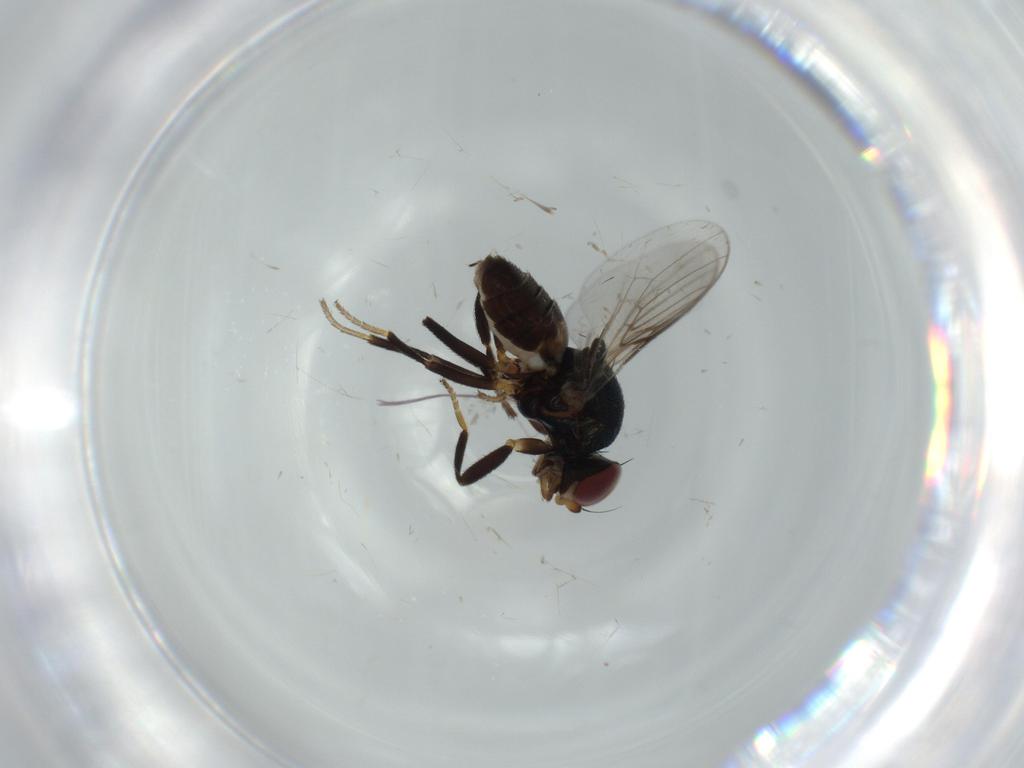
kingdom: Animalia
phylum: Arthropoda
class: Insecta
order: Diptera
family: Chloropidae
